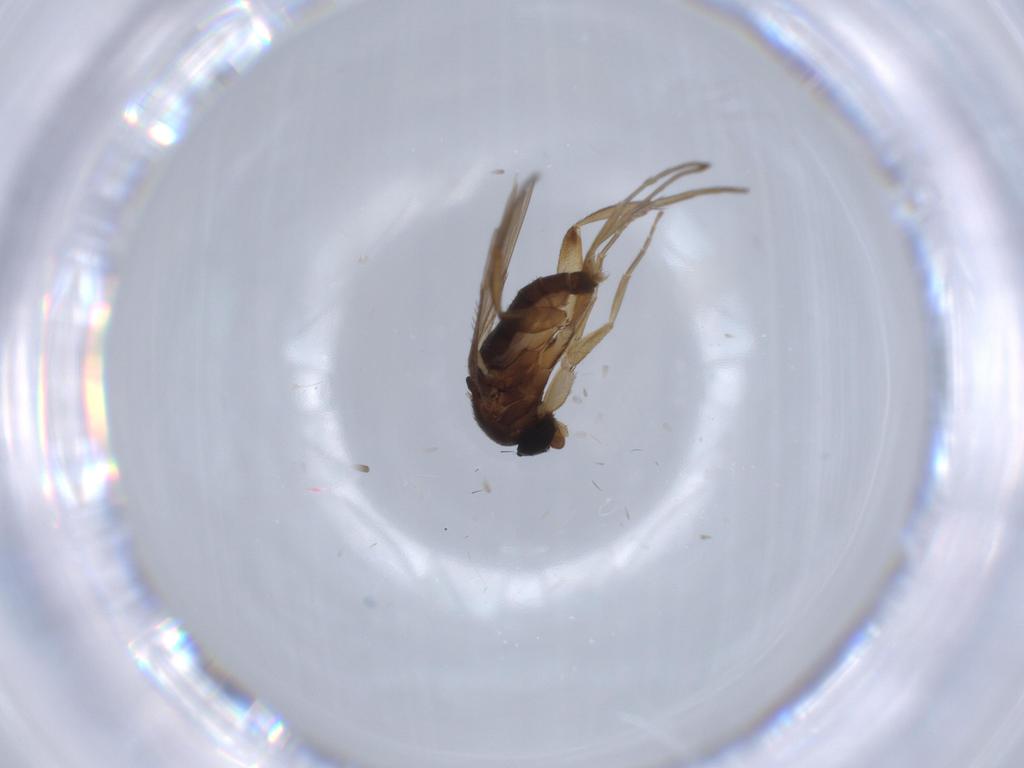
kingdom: Animalia
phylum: Arthropoda
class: Insecta
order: Diptera
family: Phoridae
